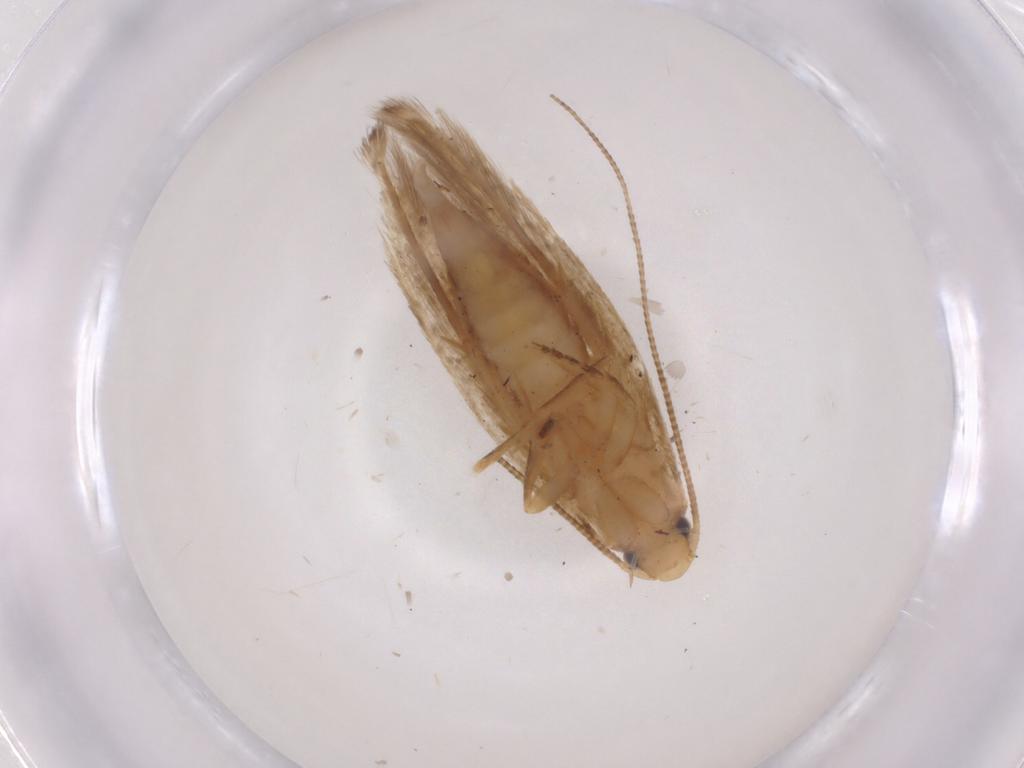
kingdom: Animalia
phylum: Arthropoda
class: Insecta
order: Lepidoptera
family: Tineidae
